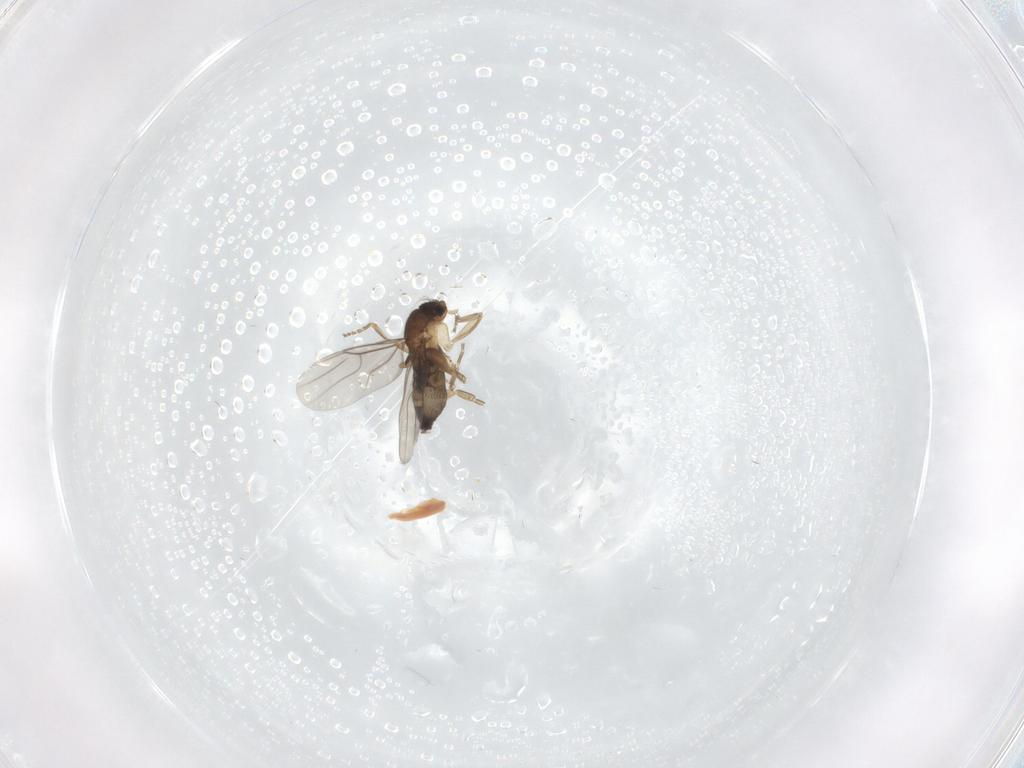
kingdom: Animalia
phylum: Arthropoda
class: Insecta
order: Diptera
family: Phoridae
